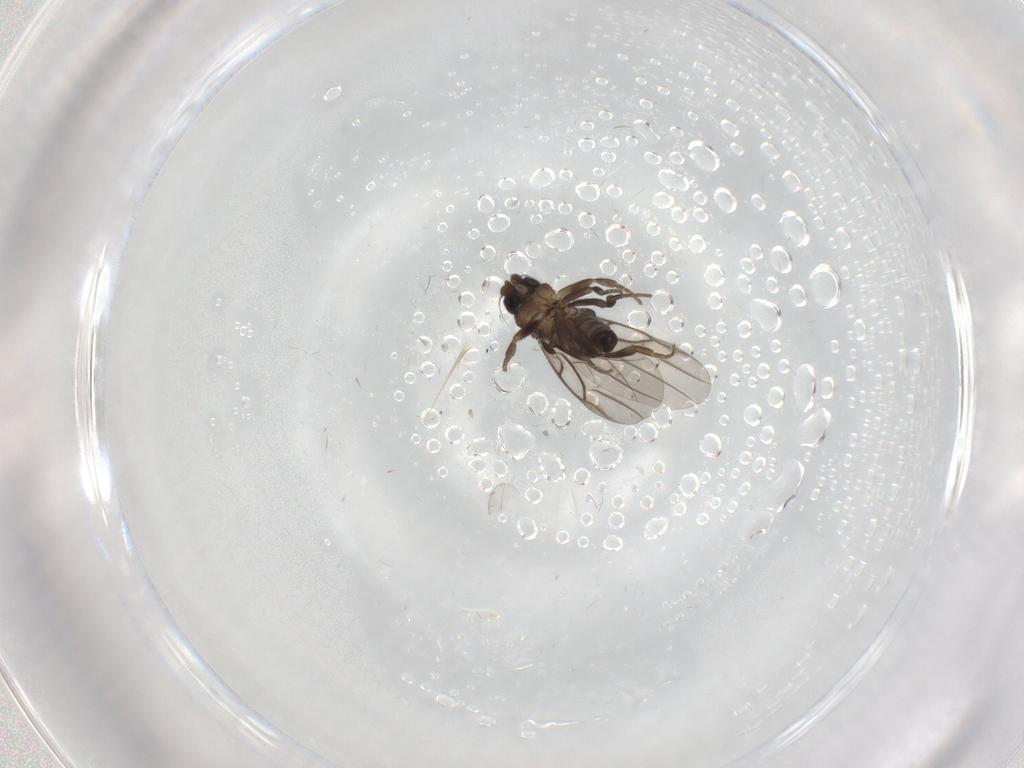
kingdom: Animalia
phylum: Arthropoda
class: Insecta
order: Diptera
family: Phoridae
